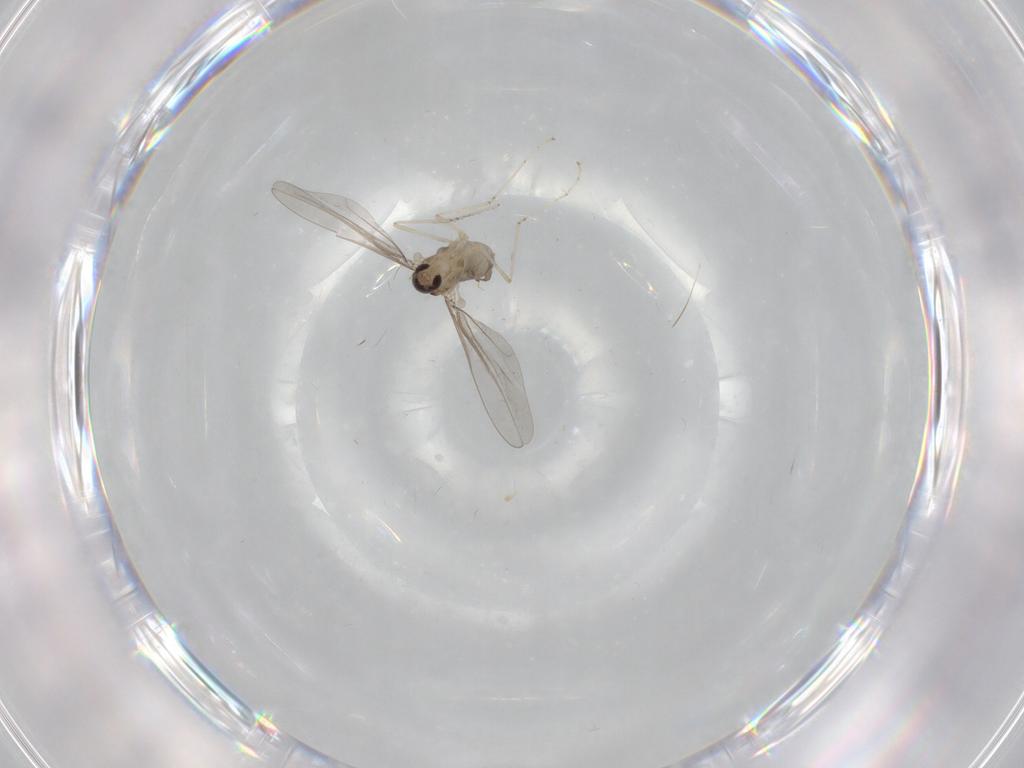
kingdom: Animalia
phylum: Arthropoda
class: Insecta
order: Diptera
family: Cecidomyiidae
